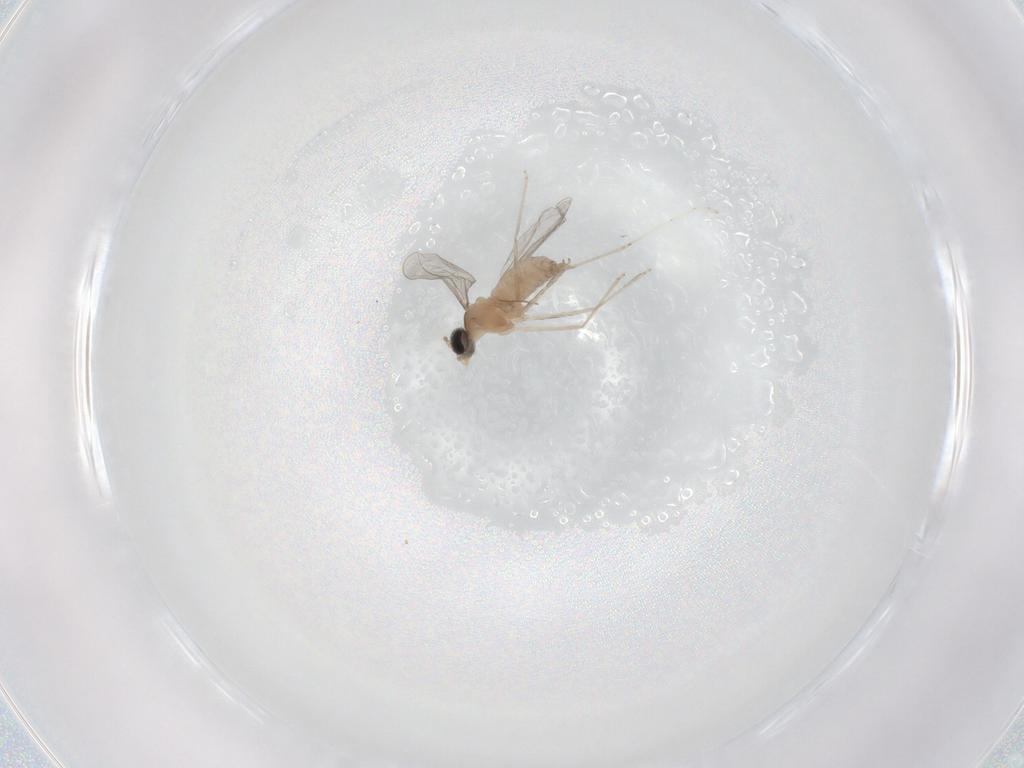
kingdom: Animalia
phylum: Arthropoda
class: Insecta
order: Diptera
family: Cecidomyiidae
